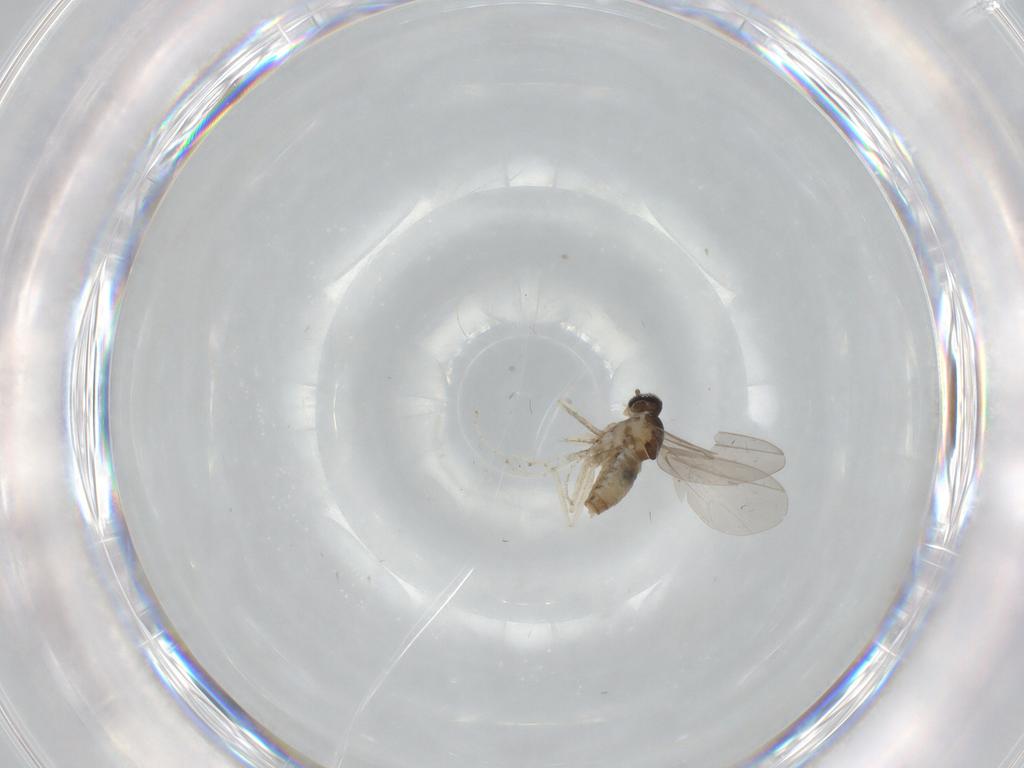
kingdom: Animalia
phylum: Arthropoda
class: Insecta
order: Diptera
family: Cecidomyiidae
